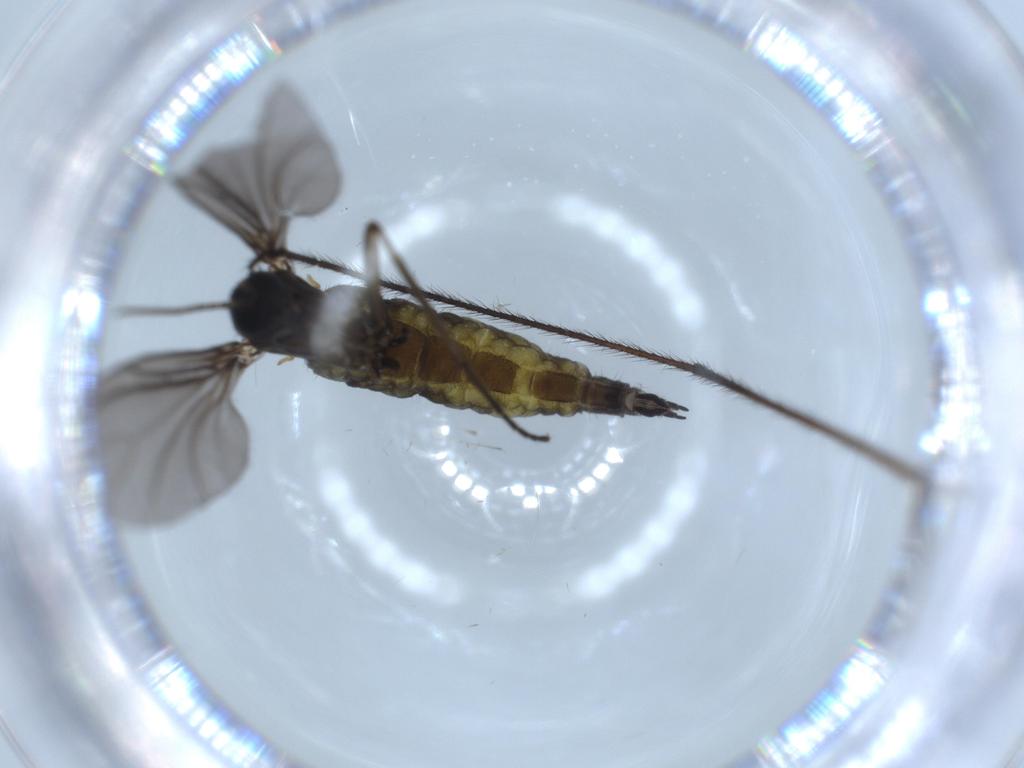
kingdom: Animalia
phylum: Arthropoda
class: Insecta
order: Diptera
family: Sciaridae
